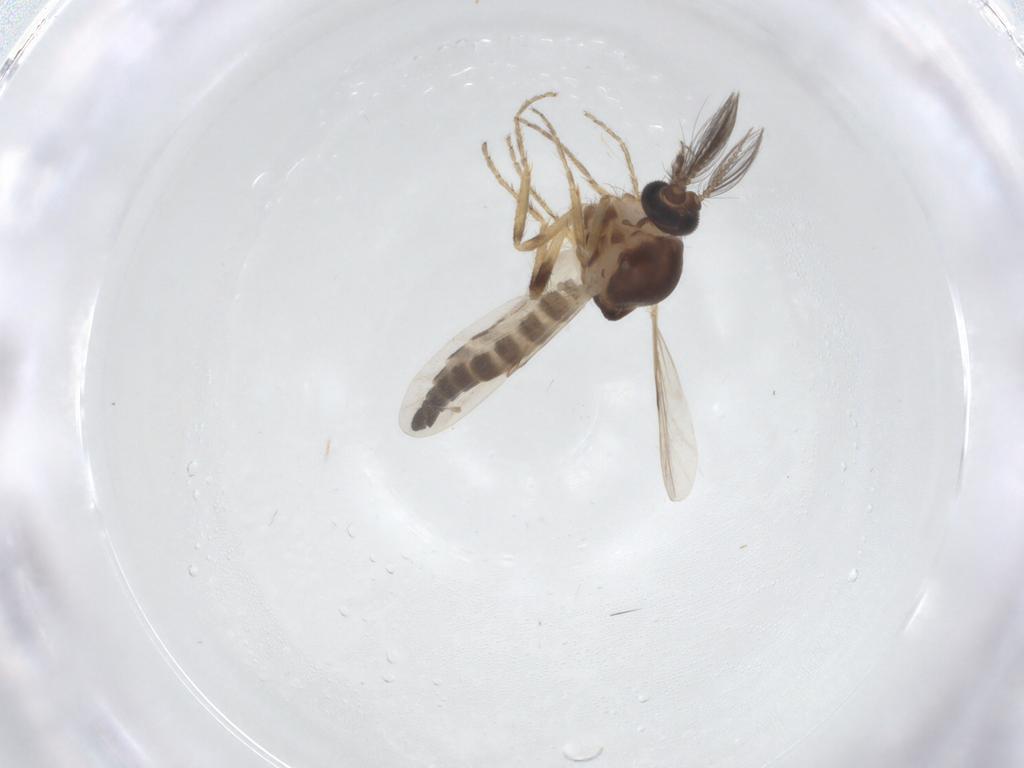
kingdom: Animalia
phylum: Arthropoda
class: Insecta
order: Diptera
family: Ceratopogonidae
